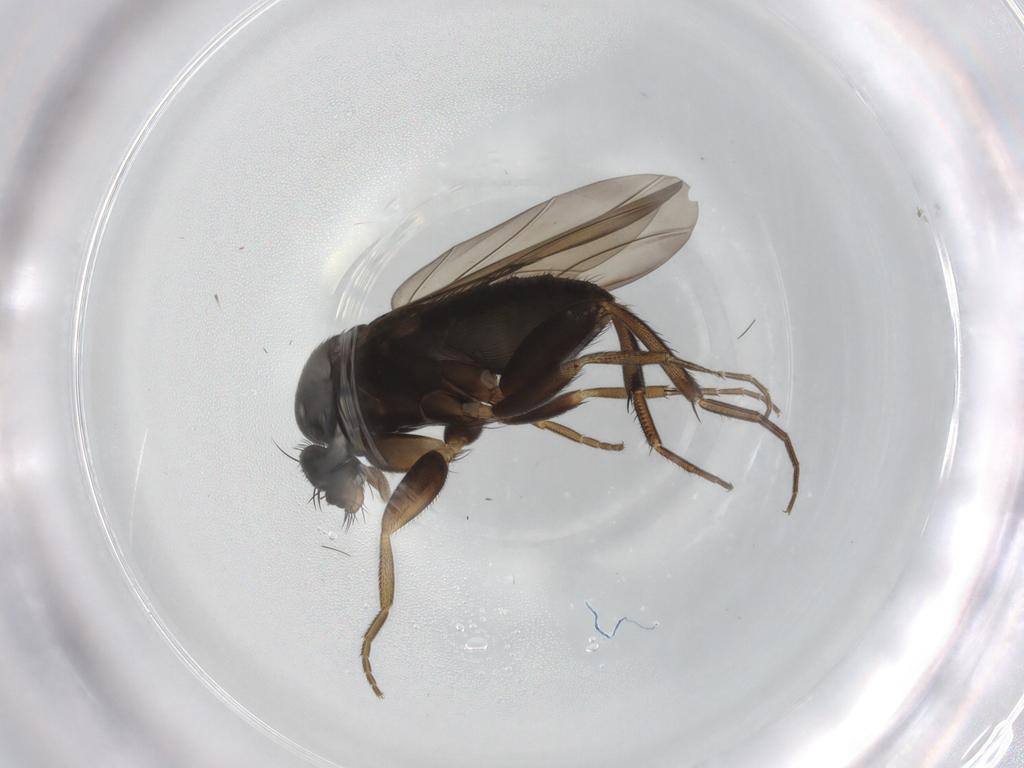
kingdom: Animalia
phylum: Arthropoda
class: Insecta
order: Diptera
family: Phoridae
